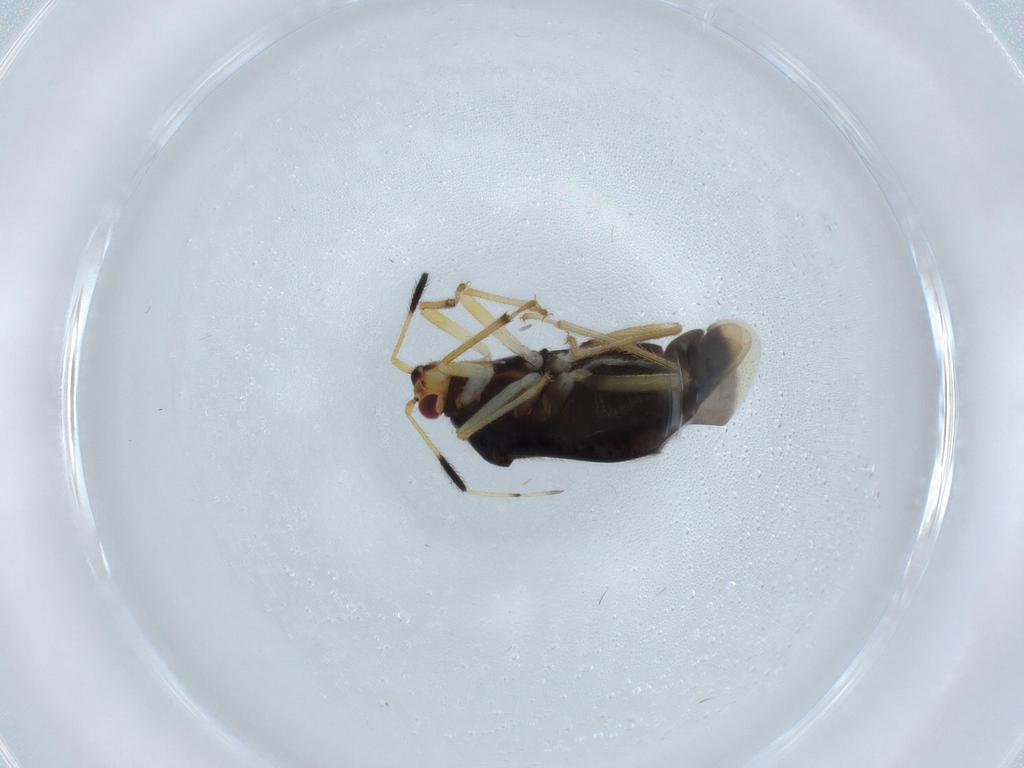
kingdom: Animalia
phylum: Arthropoda
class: Insecta
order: Hemiptera
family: Miridae
